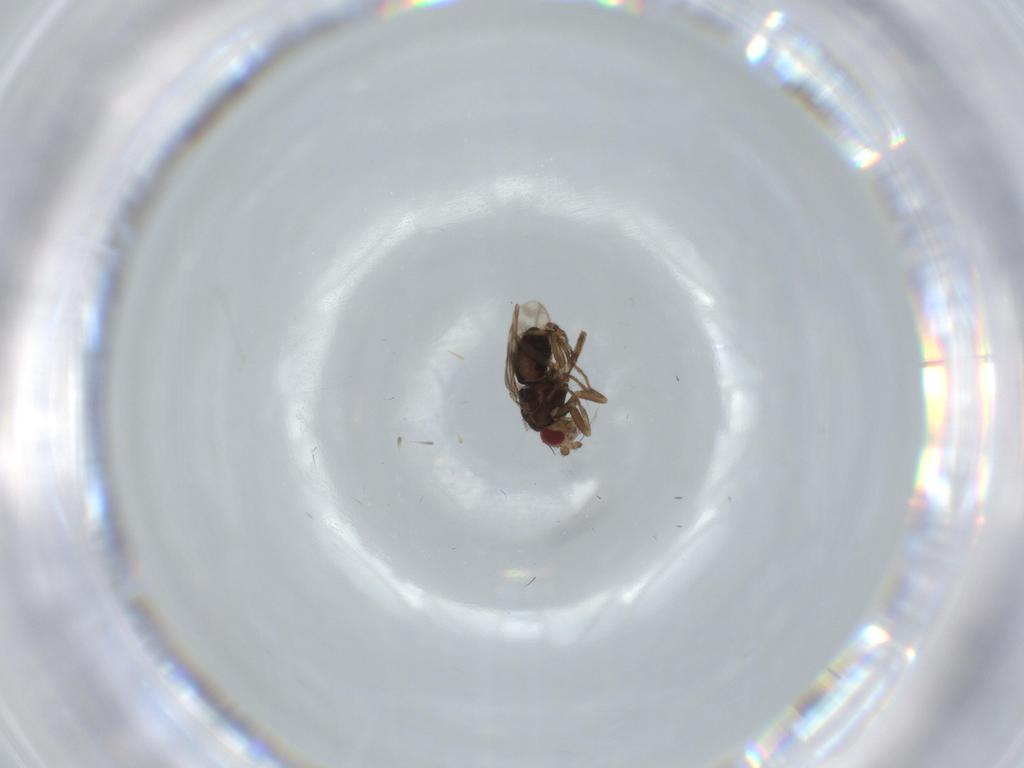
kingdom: Animalia
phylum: Arthropoda
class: Insecta
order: Diptera
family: Sphaeroceridae
